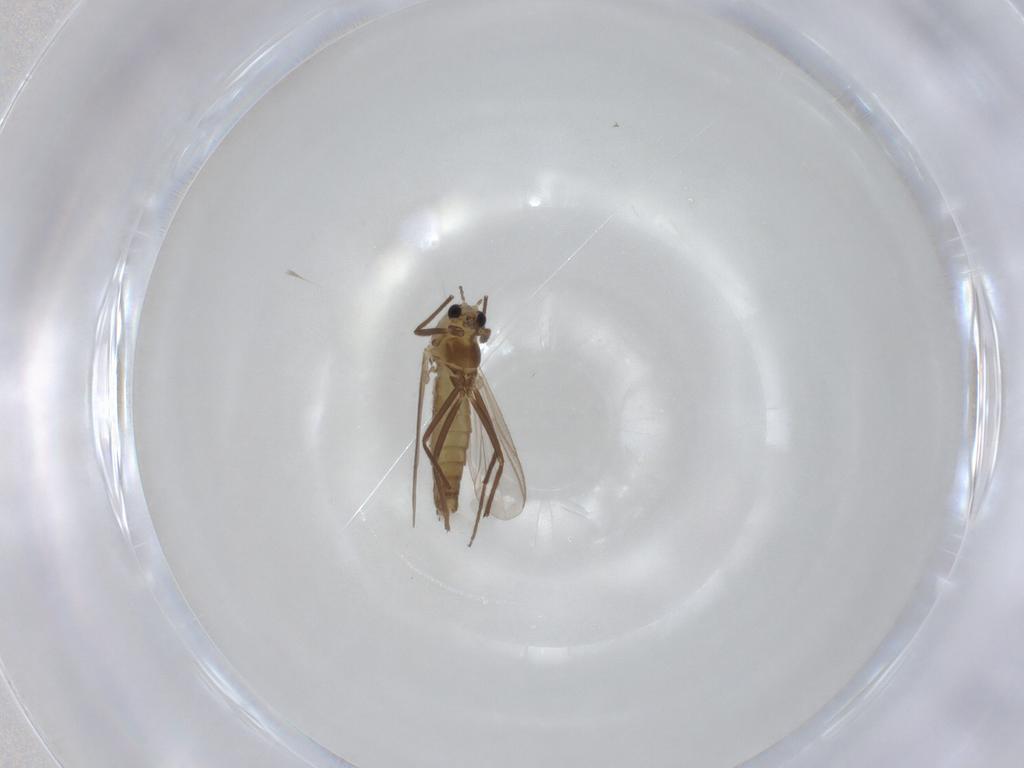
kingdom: Animalia
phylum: Arthropoda
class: Insecta
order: Diptera
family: Chironomidae
